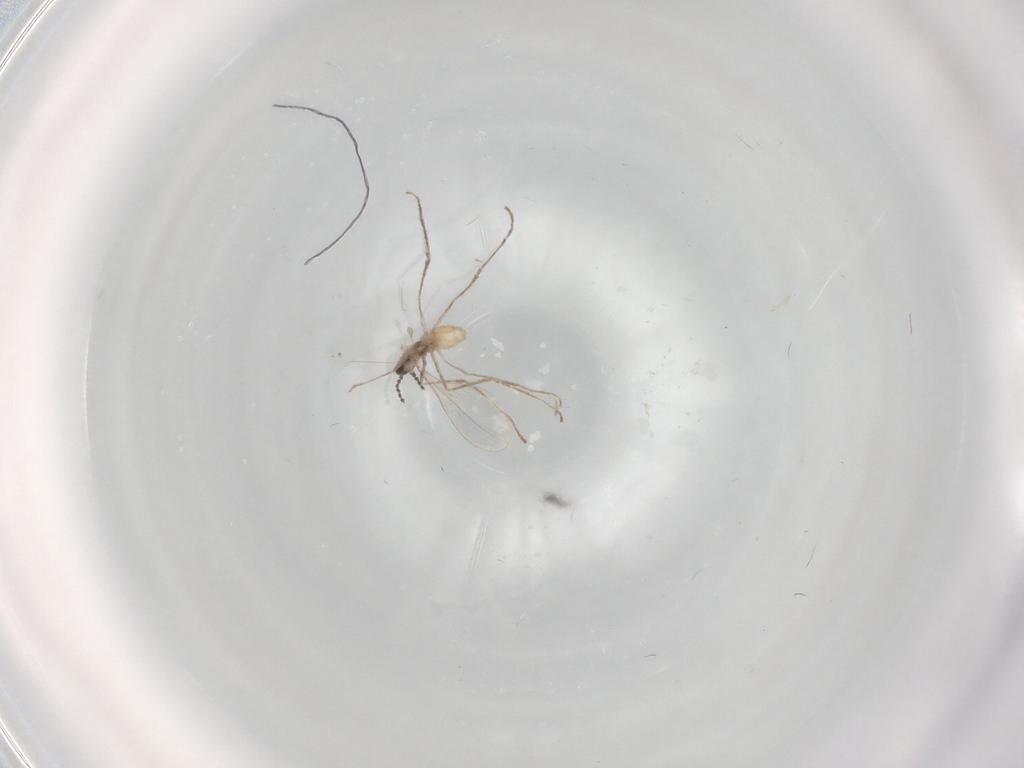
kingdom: Animalia
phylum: Arthropoda
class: Insecta
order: Diptera
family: Cecidomyiidae
